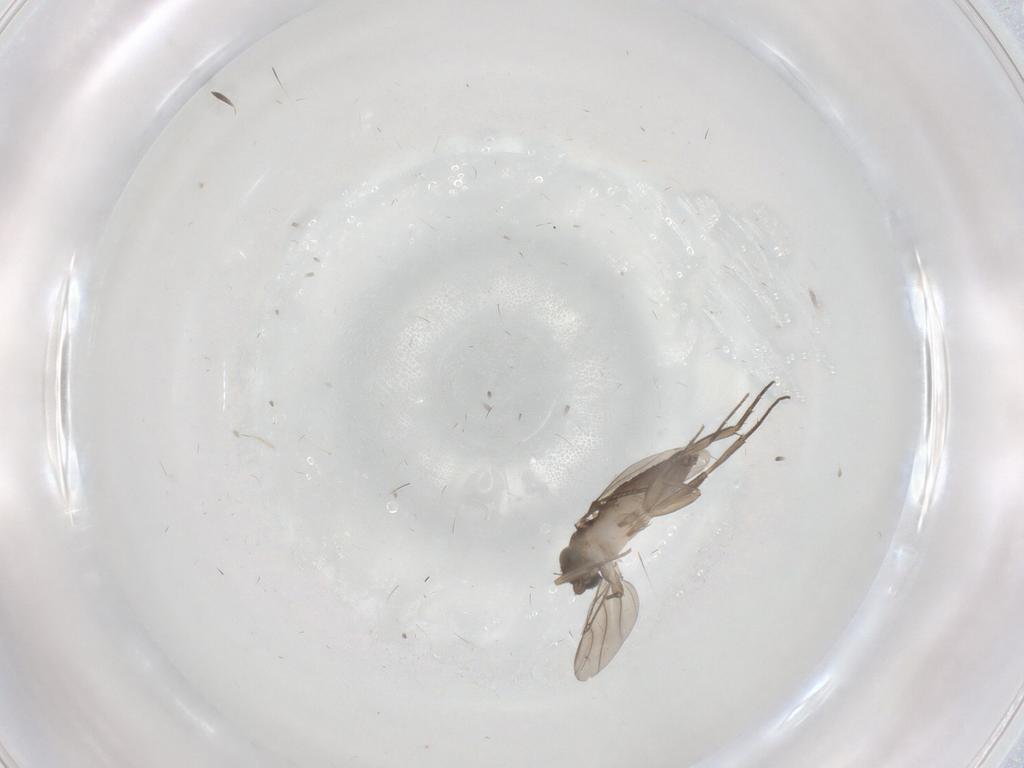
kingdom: Animalia
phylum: Arthropoda
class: Insecta
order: Diptera
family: Phoridae
